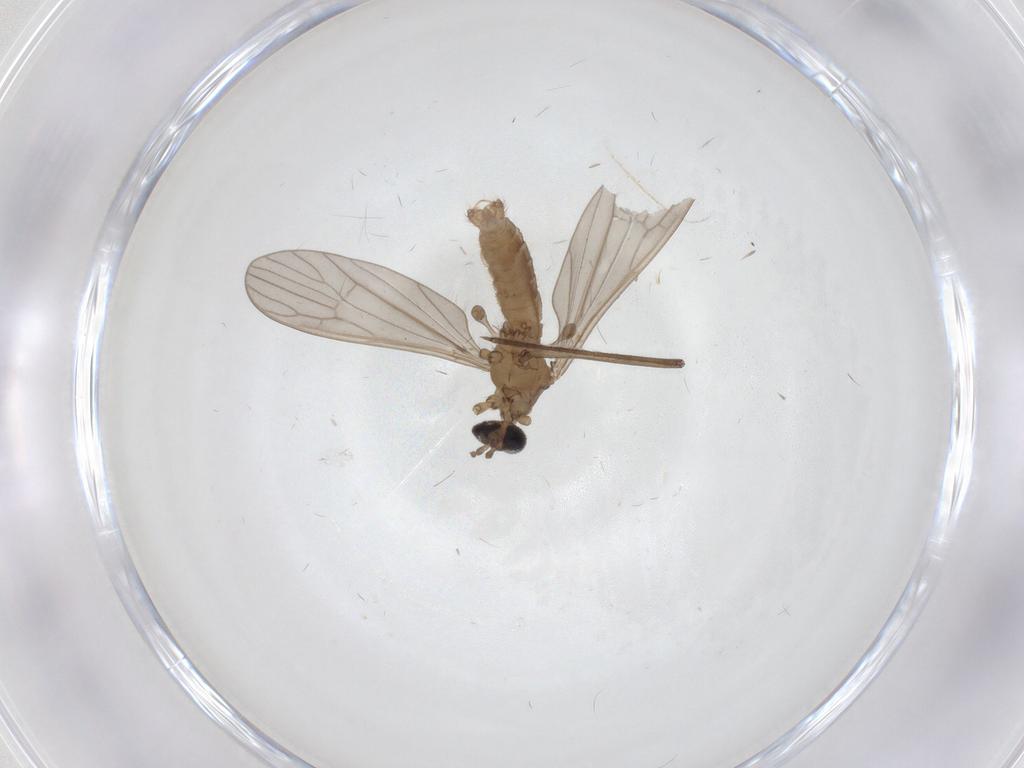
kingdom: Animalia
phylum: Arthropoda
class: Insecta
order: Diptera
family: Limoniidae
